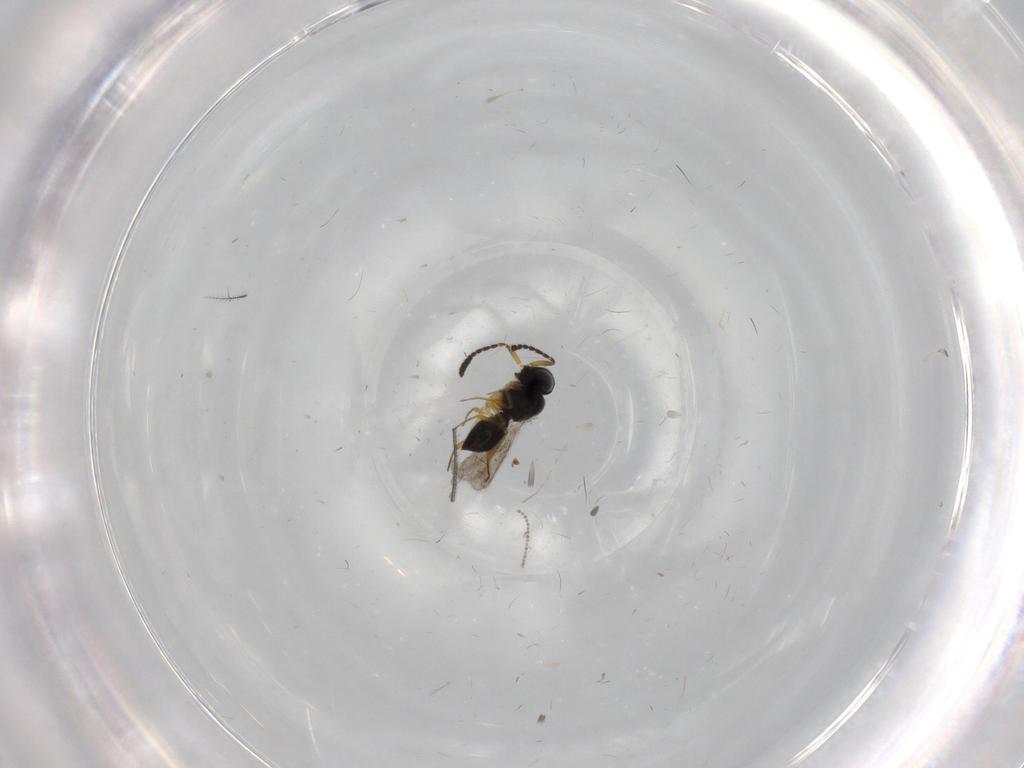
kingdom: Animalia
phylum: Arthropoda
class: Insecta
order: Hymenoptera
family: Scelionidae
